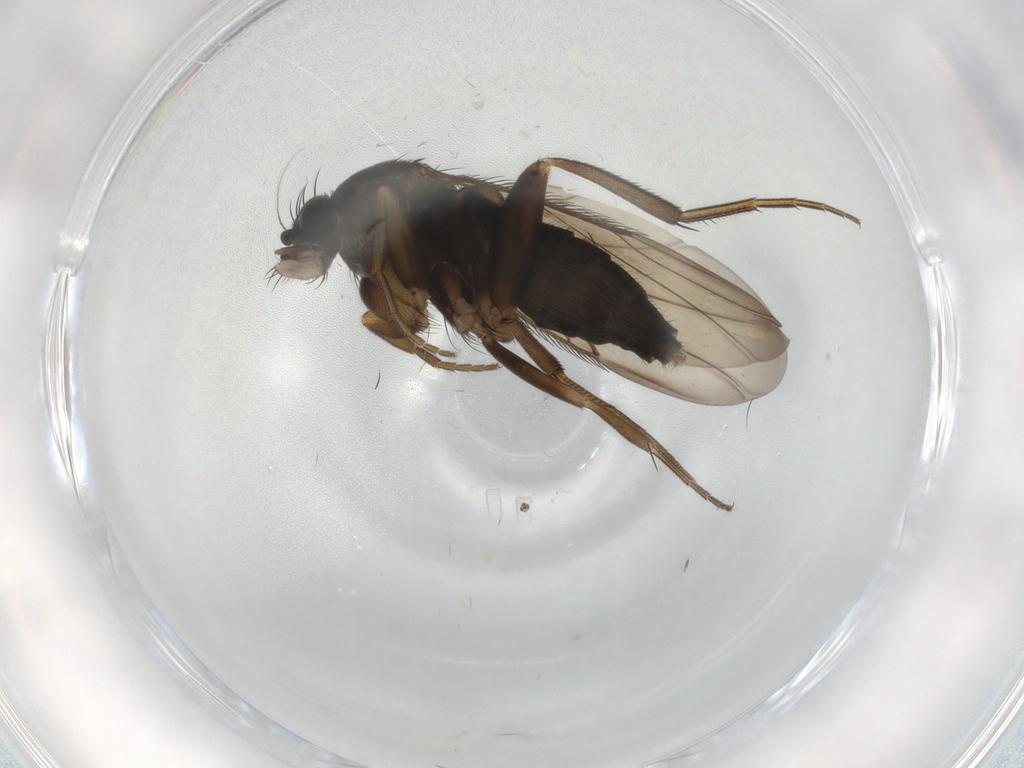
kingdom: Animalia
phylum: Arthropoda
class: Insecta
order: Diptera
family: Phoridae
